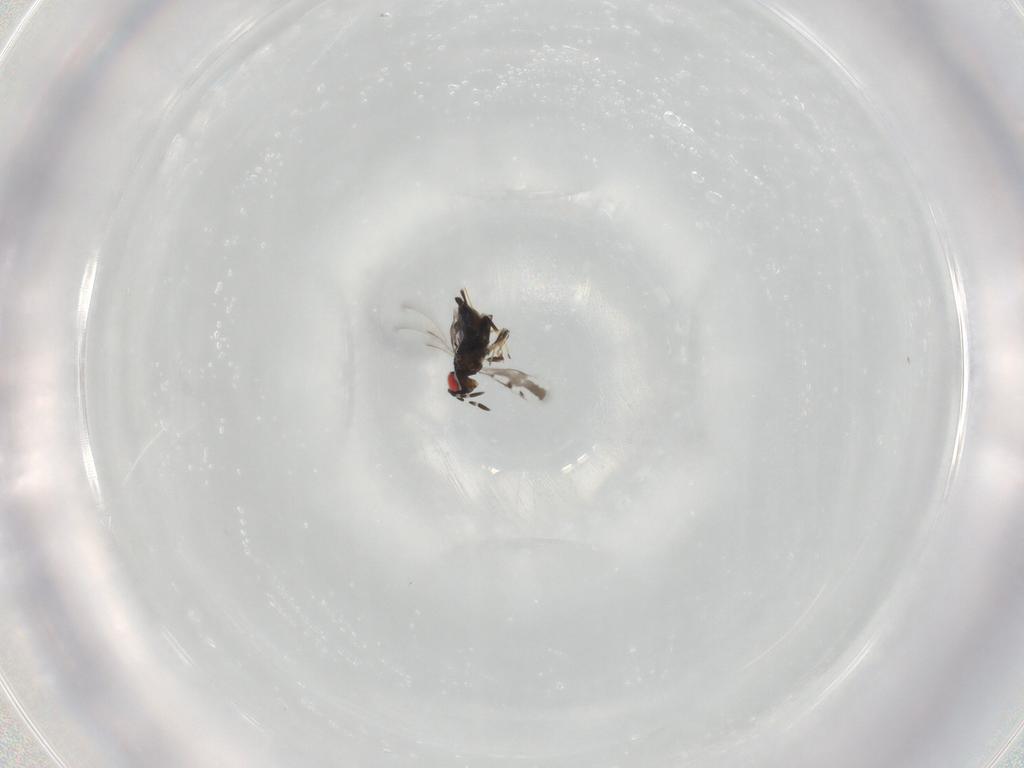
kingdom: Animalia
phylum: Arthropoda
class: Insecta
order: Hymenoptera
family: Azotidae
